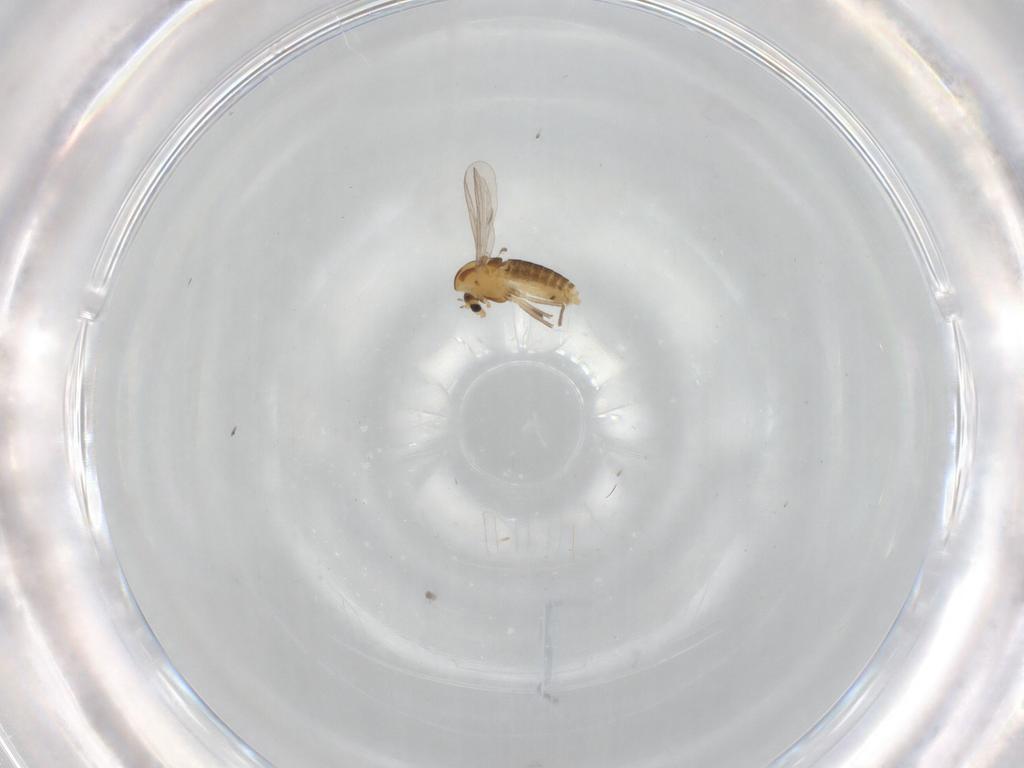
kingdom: Animalia
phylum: Arthropoda
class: Insecta
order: Diptera
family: Chironomidae
